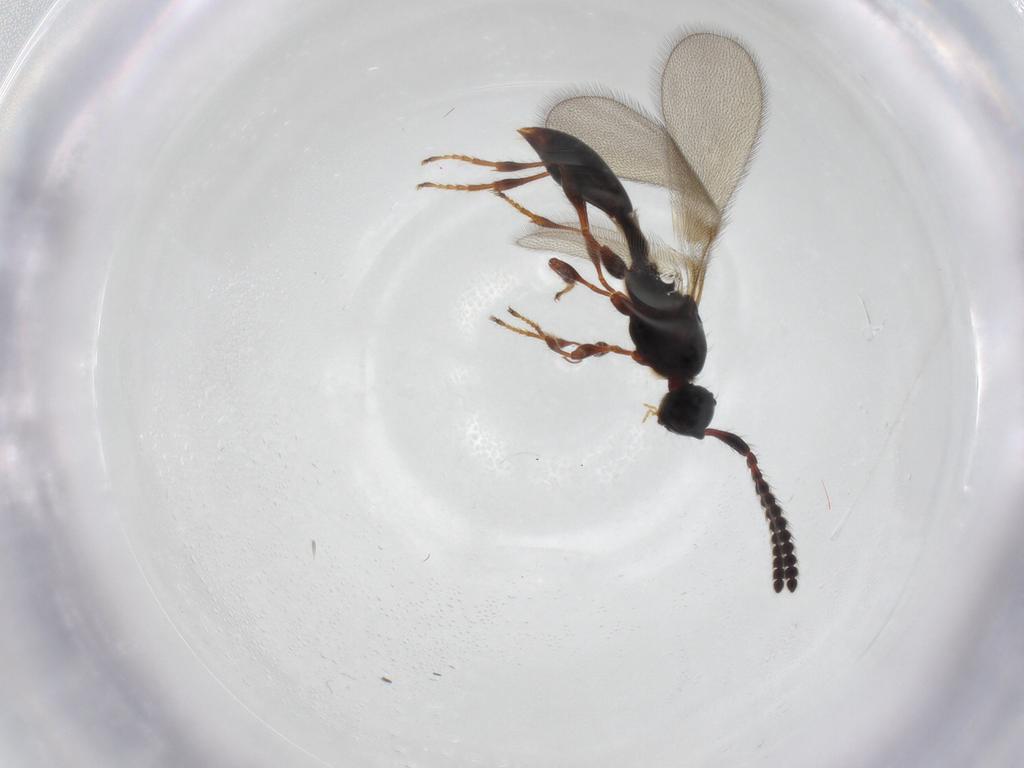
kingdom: Animalia
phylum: Arthropoda
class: Insecta
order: Hymenoptera
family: Diapriidae
